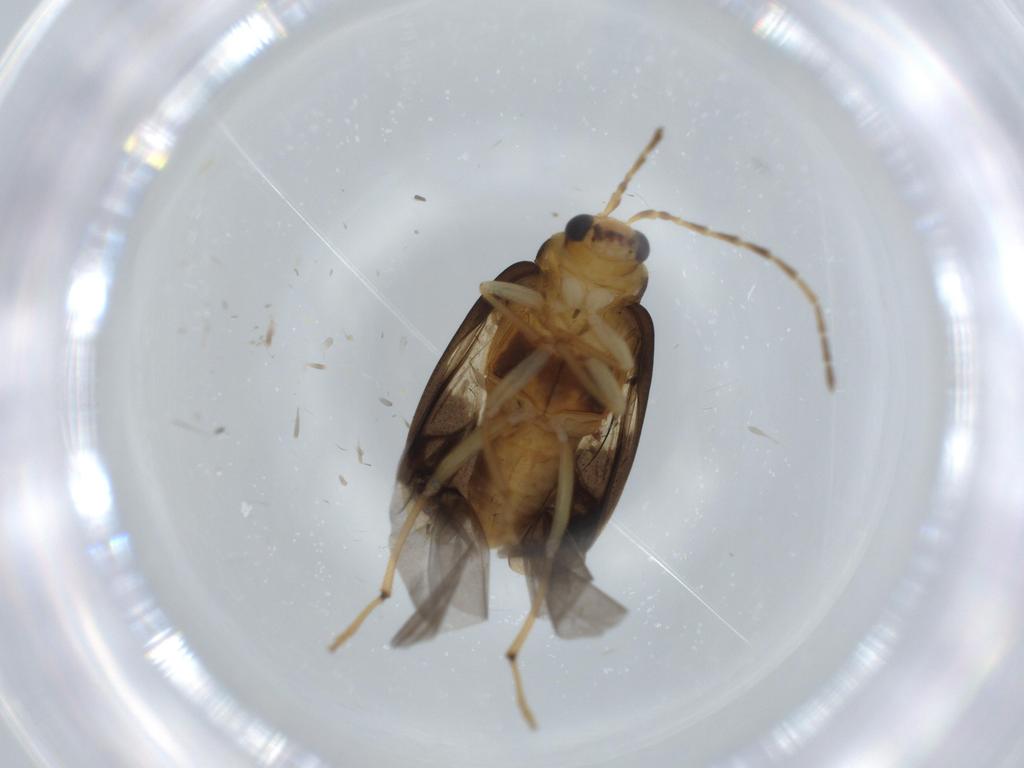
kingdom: Animalia
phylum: Arthropoda
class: Insecta
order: Coleoptera
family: Chrysomelidae
